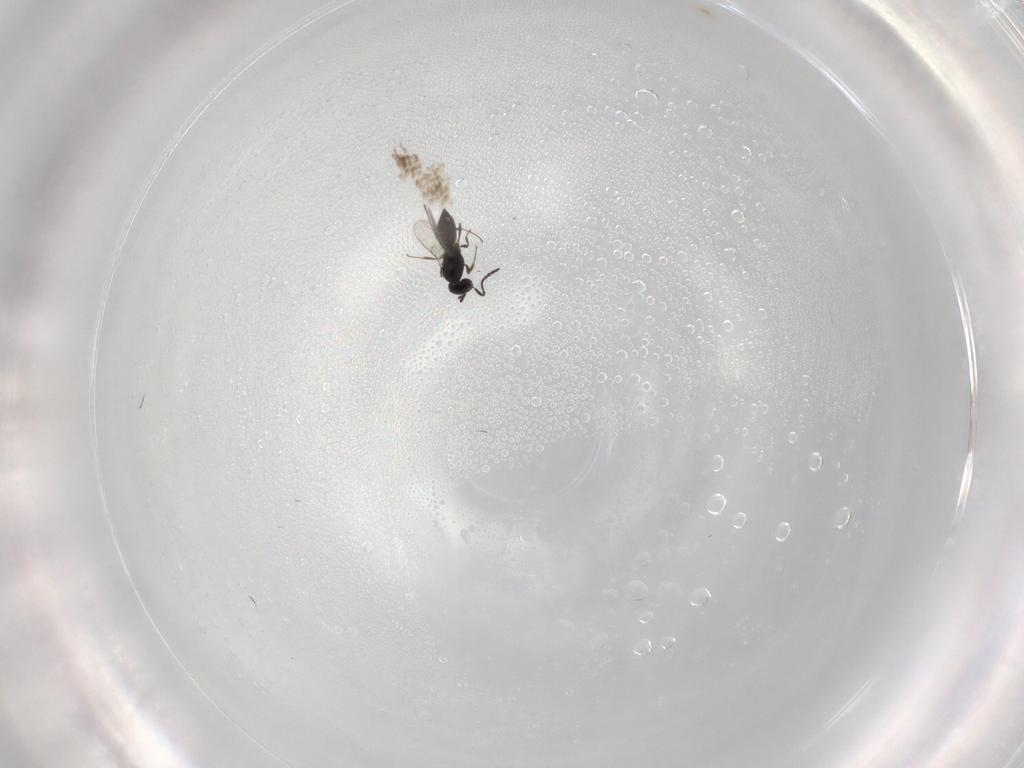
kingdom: Animalia
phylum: Arthropoda
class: Insecta
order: Hymenoptera
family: Scelionidae
